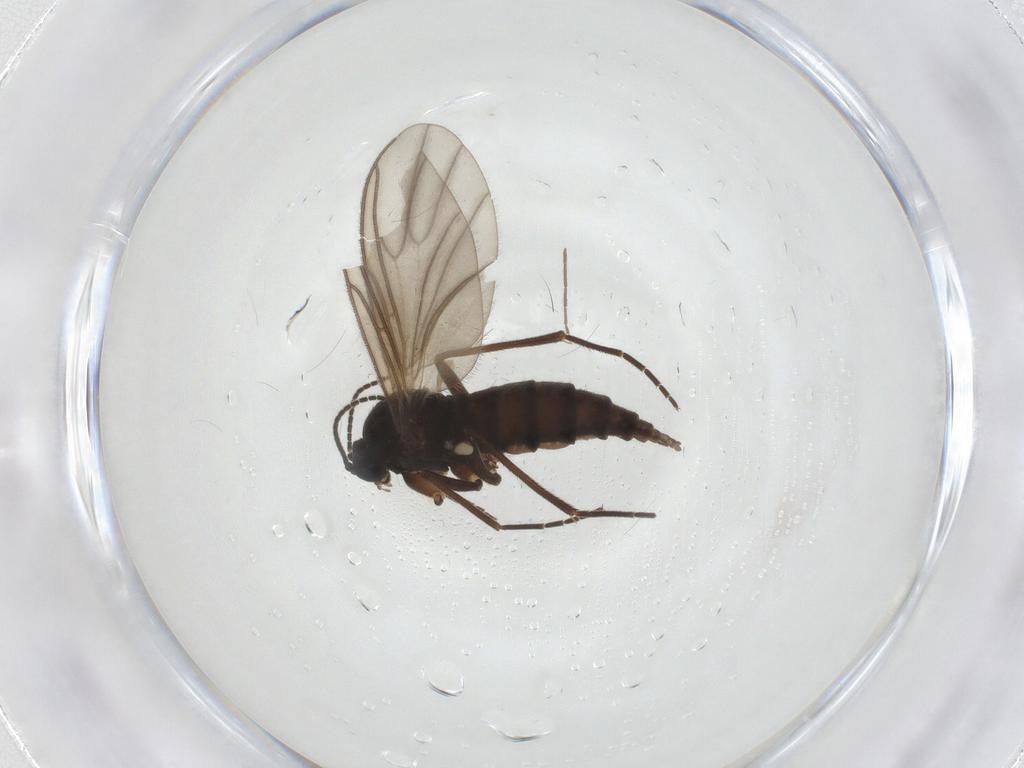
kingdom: Animalia
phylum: Arthropoda
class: Insecta
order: Diptera
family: Sciaridae
